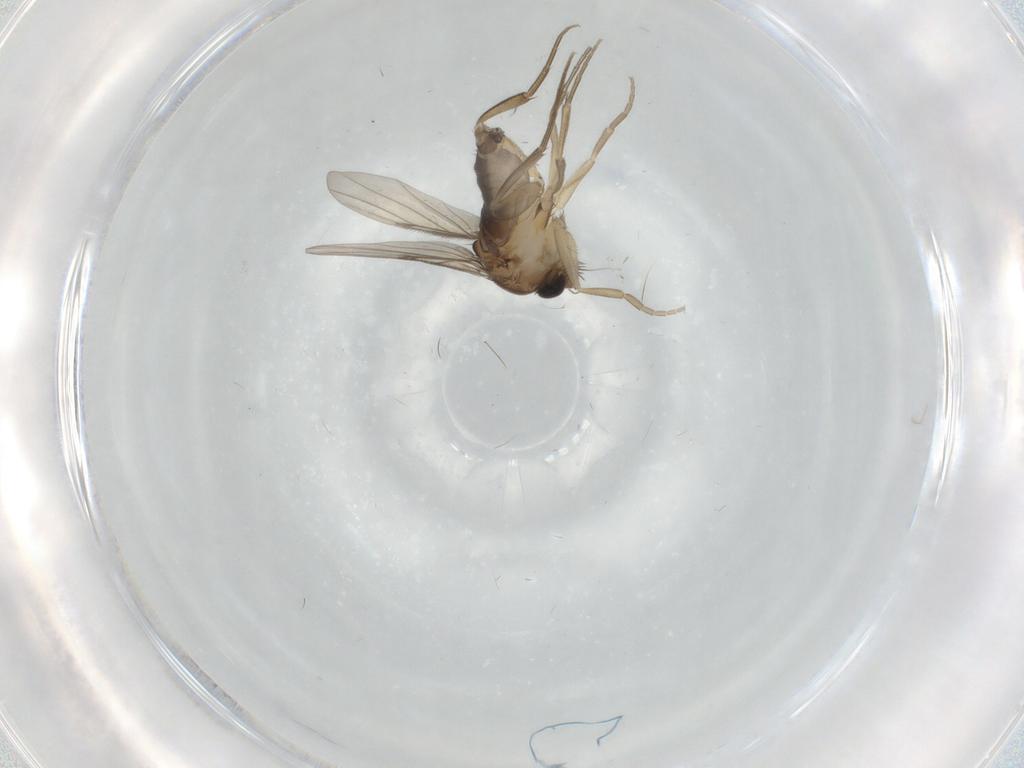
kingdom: Animalia
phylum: Arthropoda
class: Insecta
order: Diptera
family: Phoridae
